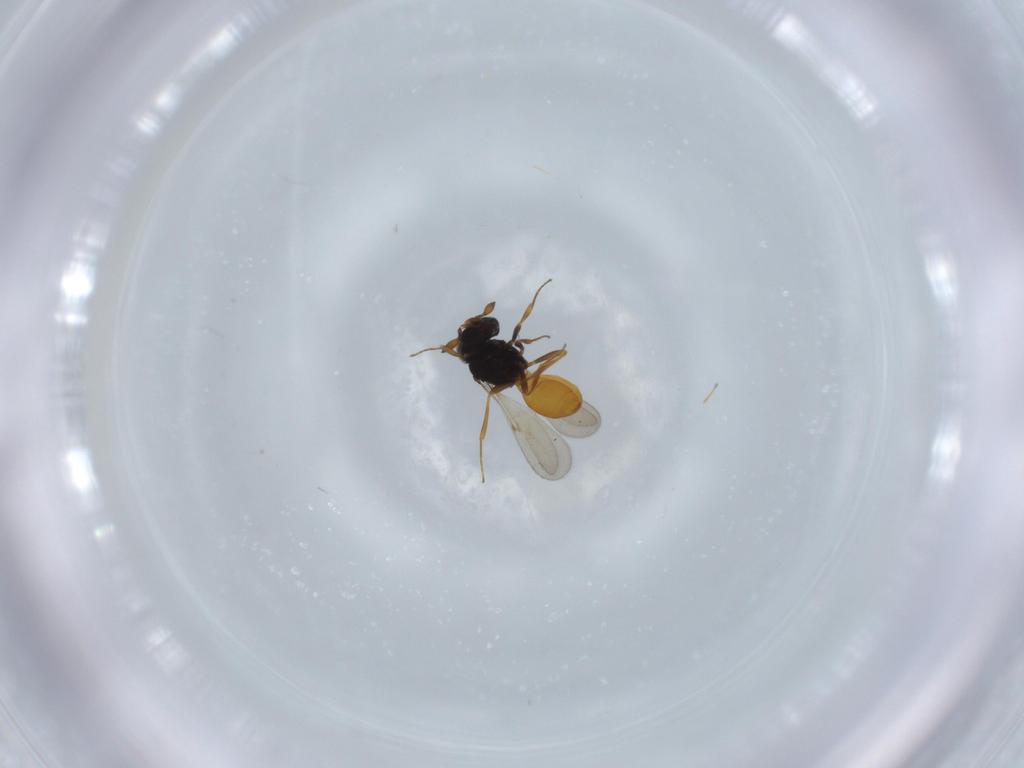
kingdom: Animalia
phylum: Arthropoda
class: Insecta
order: Hymenoptera
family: Scelionidae
